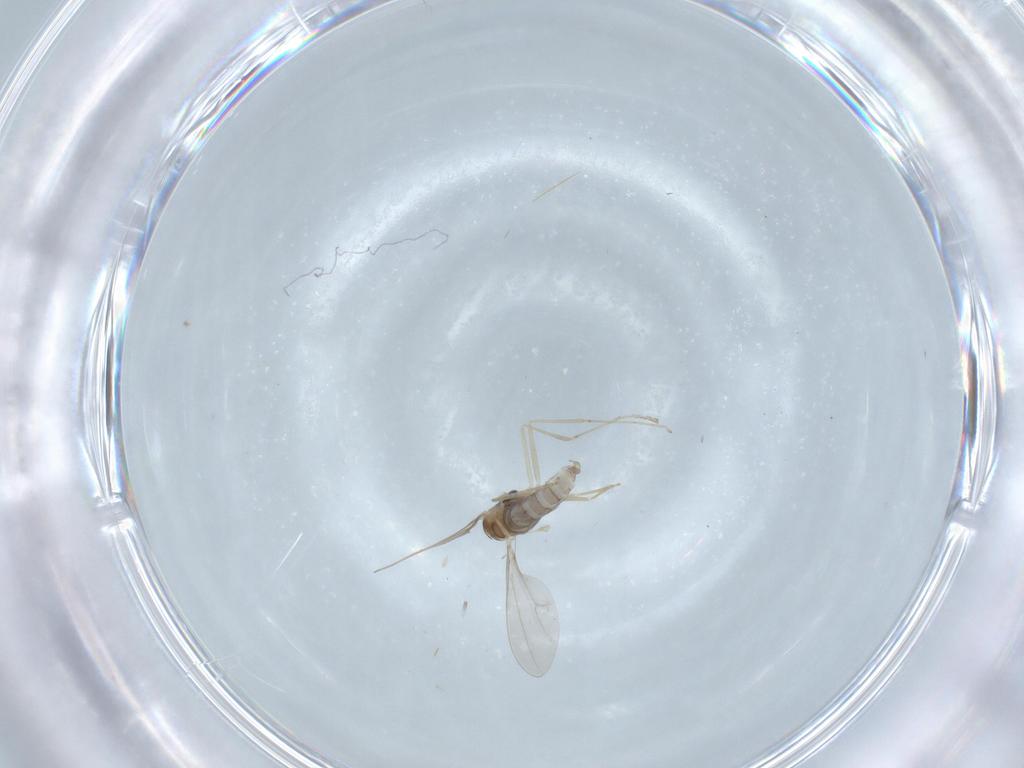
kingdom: Animalia
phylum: Arthropoda
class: Insecta
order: Diptera
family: Cecidomyiidae
